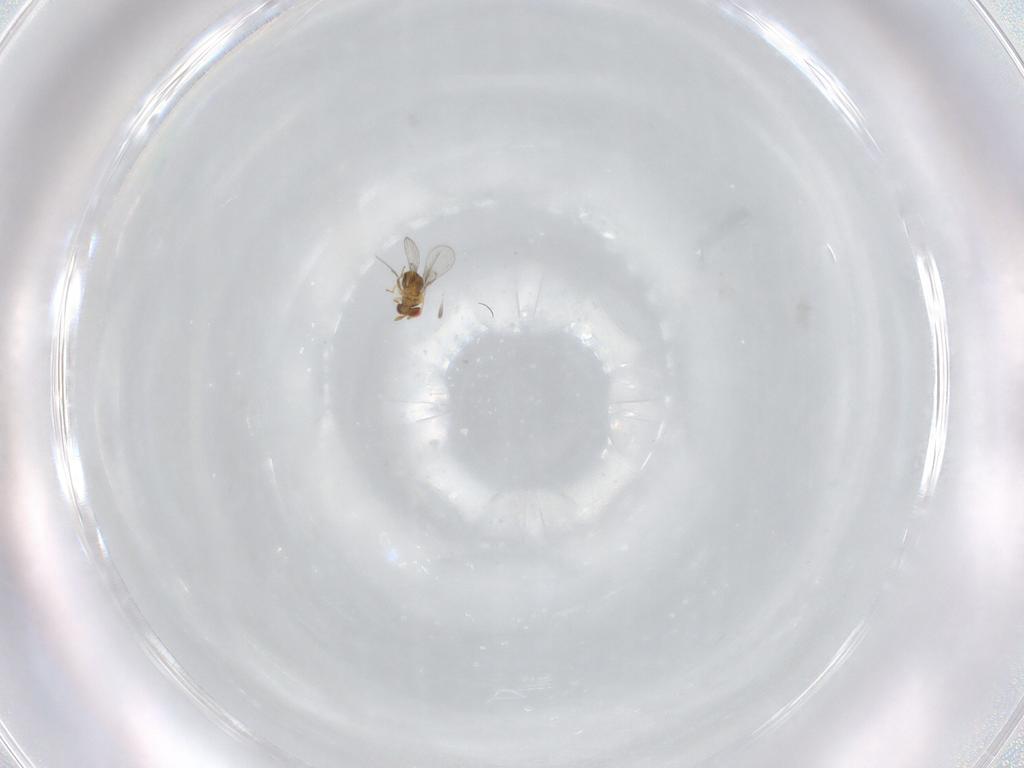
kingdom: Animalia
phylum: Arthropoda
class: Insecta
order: Hymenoptera
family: Trichogrammatidae
